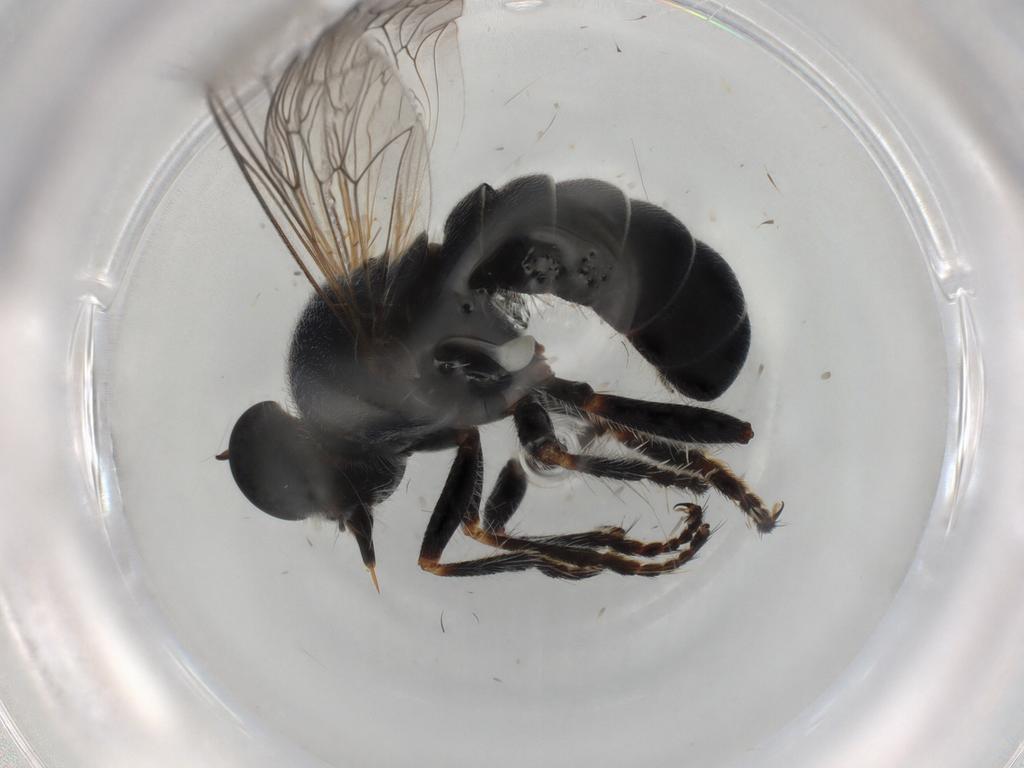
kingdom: Animalia
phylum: Arthropoda
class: Insecta
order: Diptera
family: Asilidae
